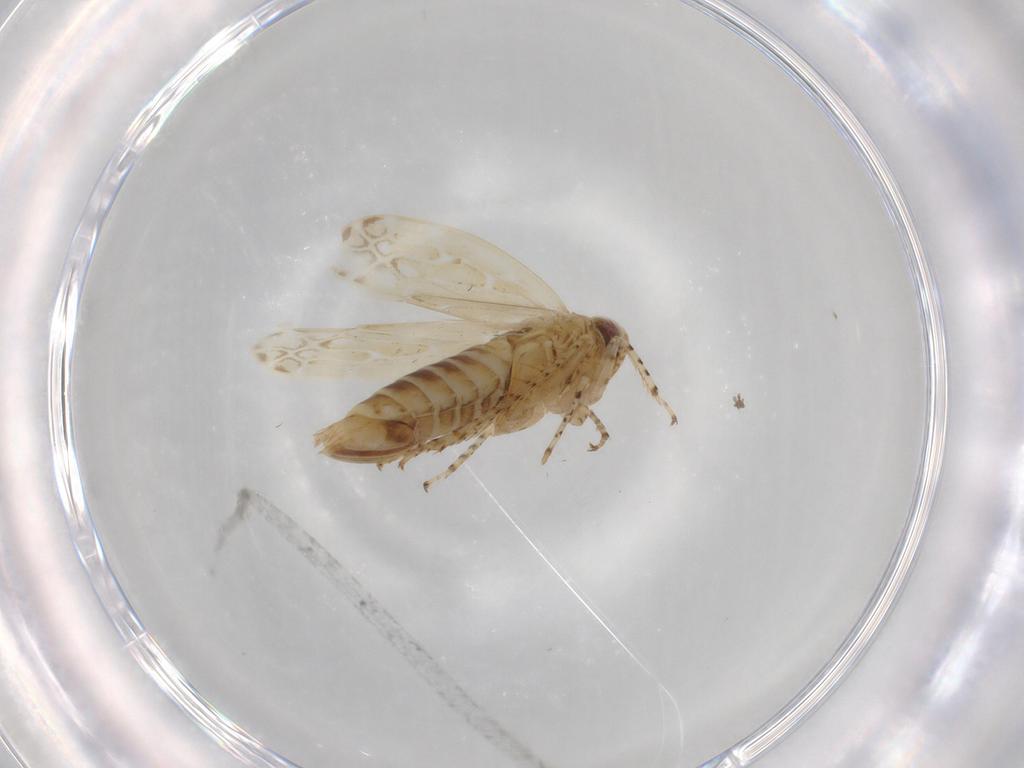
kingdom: Animalia
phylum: Arthropoda
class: Insecta
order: Hemiptera
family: Cicadellidae
